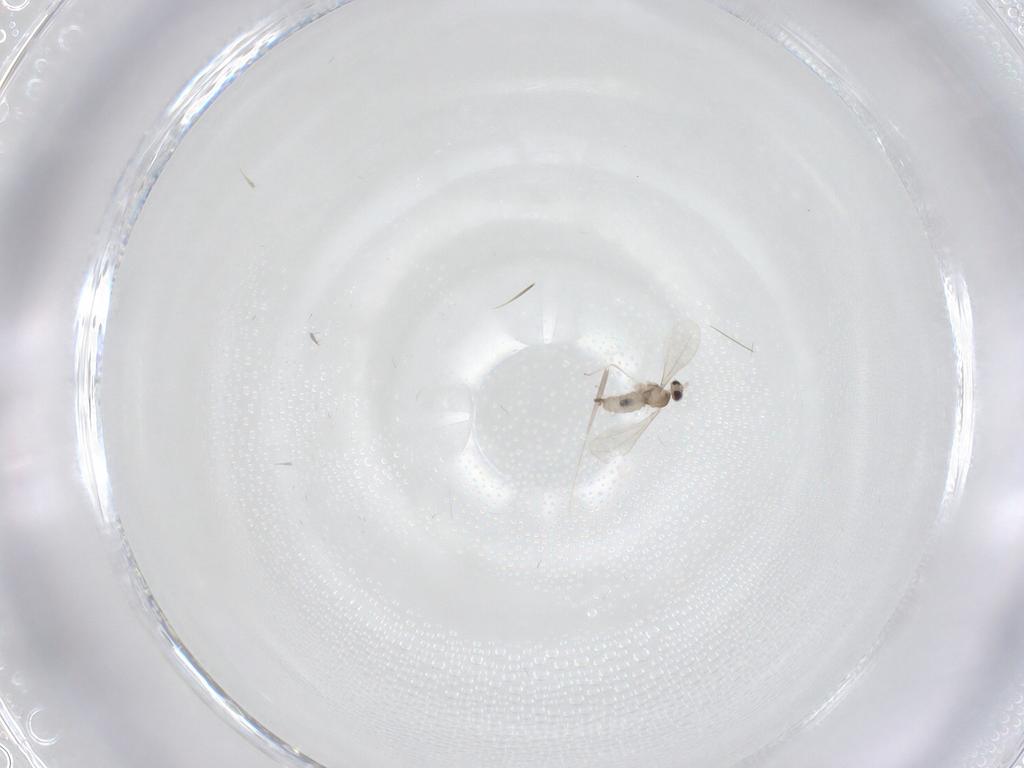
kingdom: Animalia
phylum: Arthropoda
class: Insecta
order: Diptera
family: Cecidomyiidae
